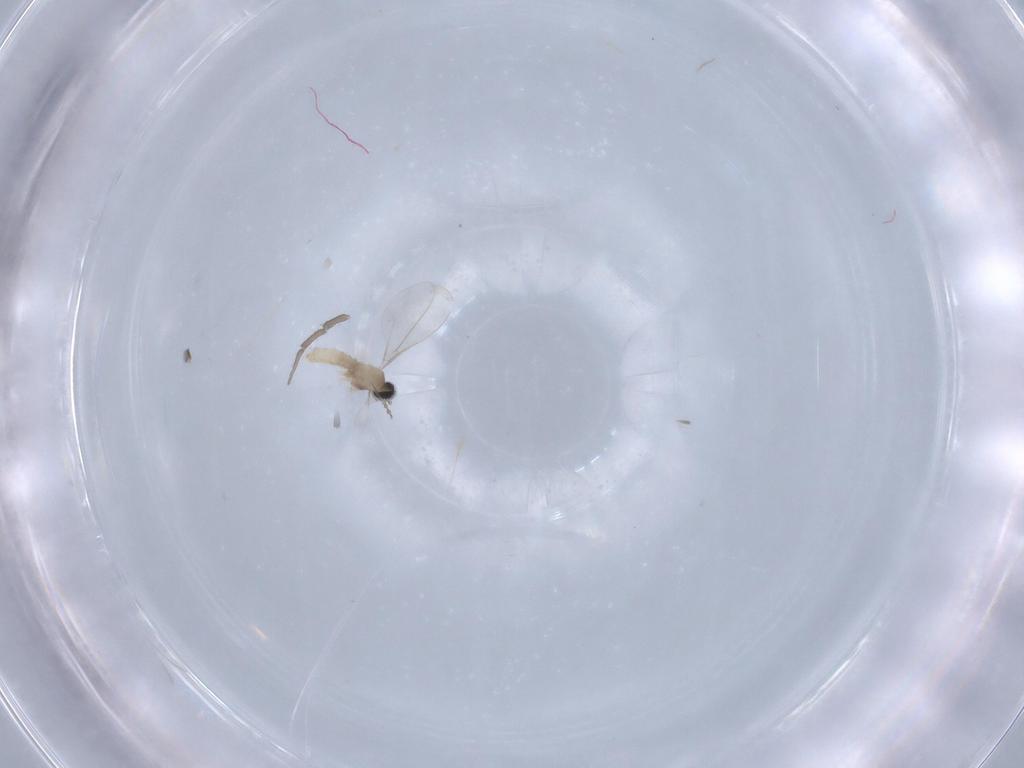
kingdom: Animalia
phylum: Arthropoda
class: Insecta
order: Diptera
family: Psychodidae
